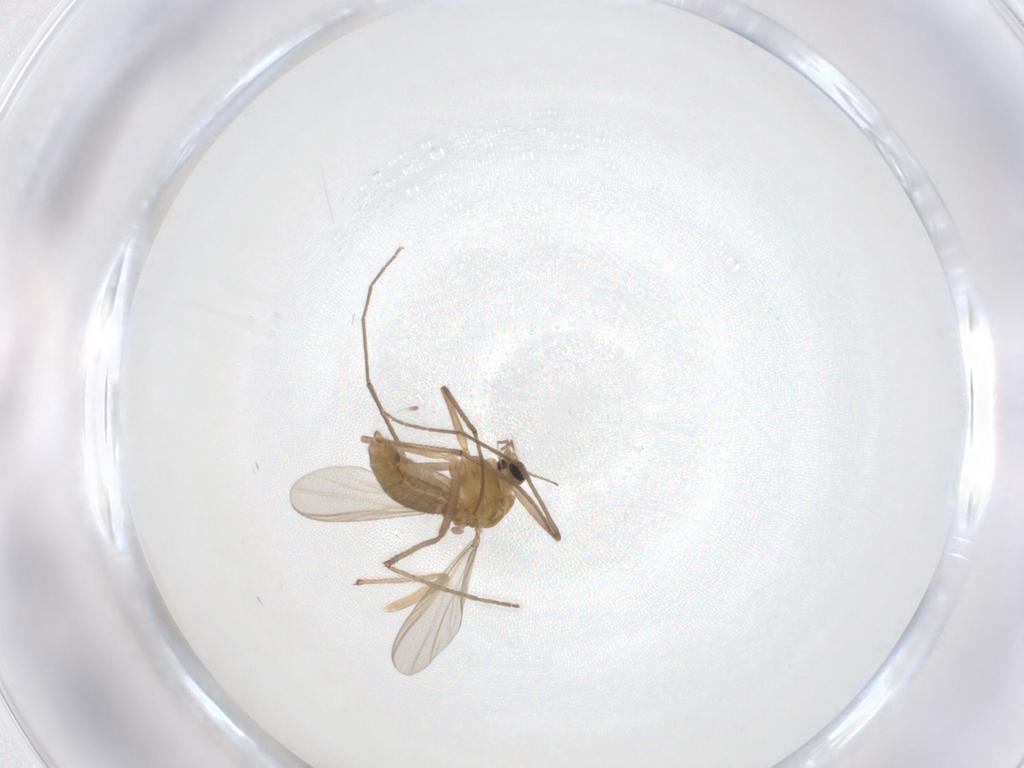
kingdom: Animalia
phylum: Arthropoda
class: Insecta
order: Diptera
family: Chironomidae
